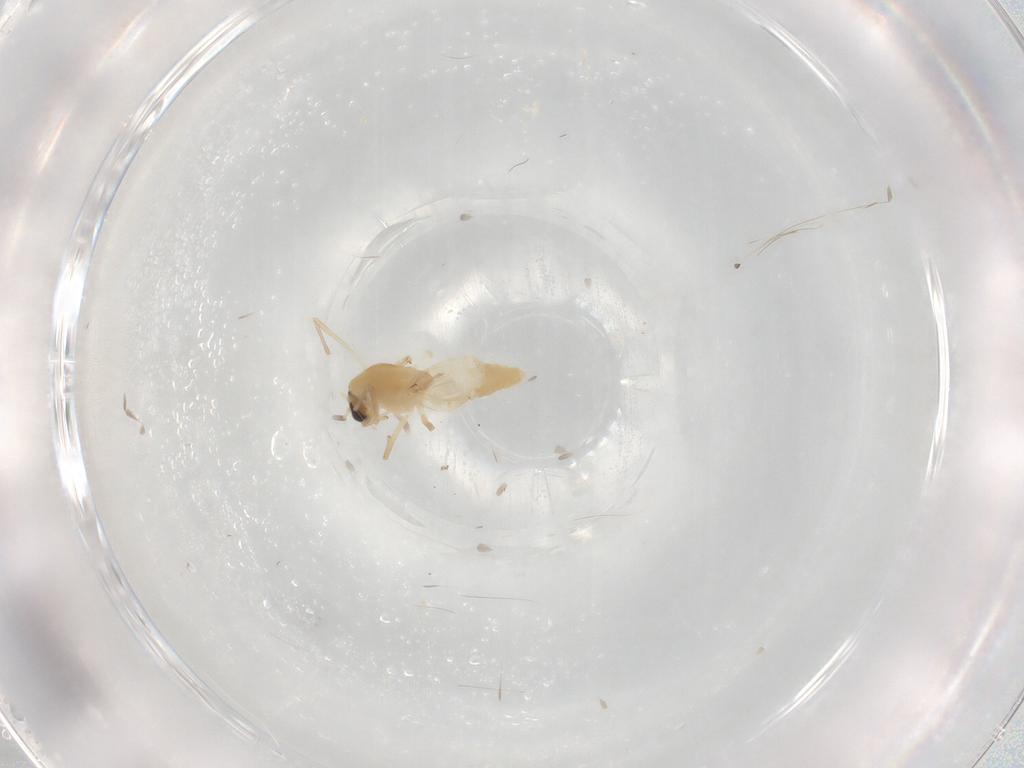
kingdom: Animalia
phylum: Arthropoda
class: Insecta
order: Diptera
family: Chironomidae
